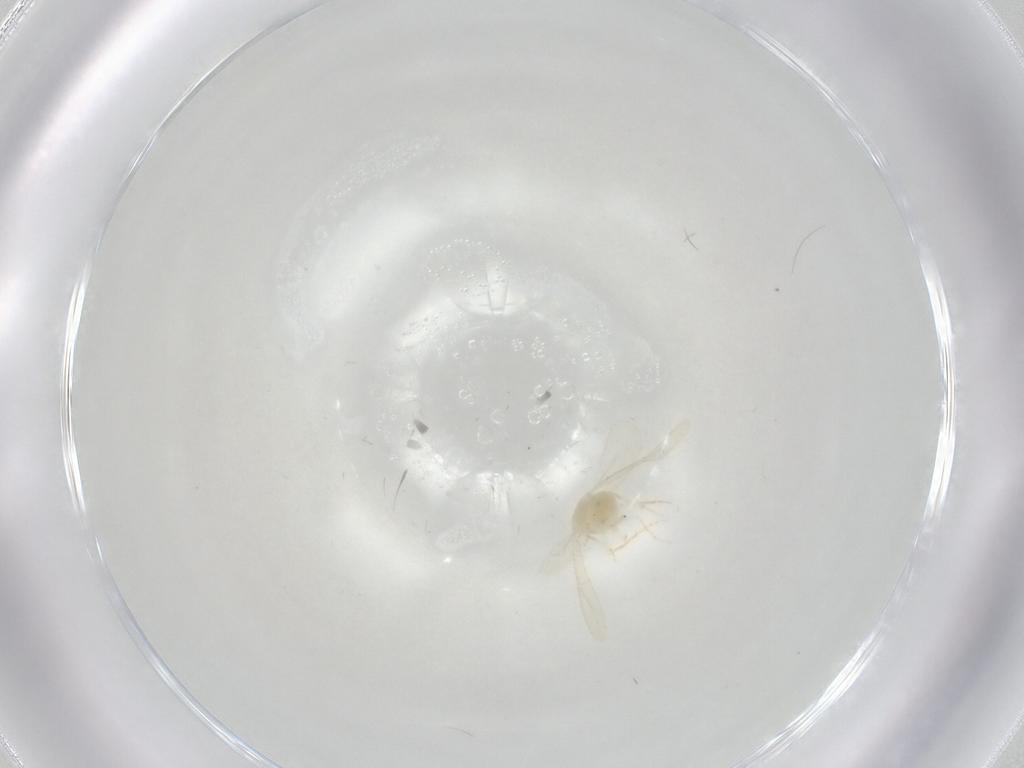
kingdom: Animalia
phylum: Arthropoda
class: Insecta
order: Hemiptera
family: Aleyrodidae
